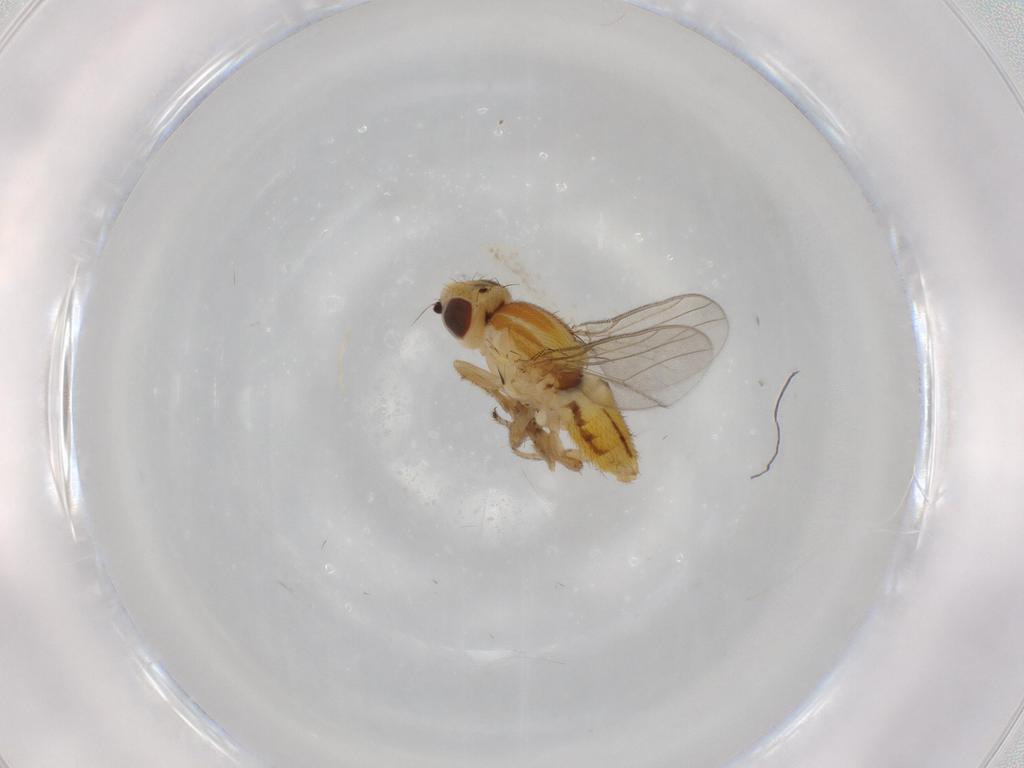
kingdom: Animalia
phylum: Arthropoda
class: Insecta
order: Diptera
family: Chloropidae
